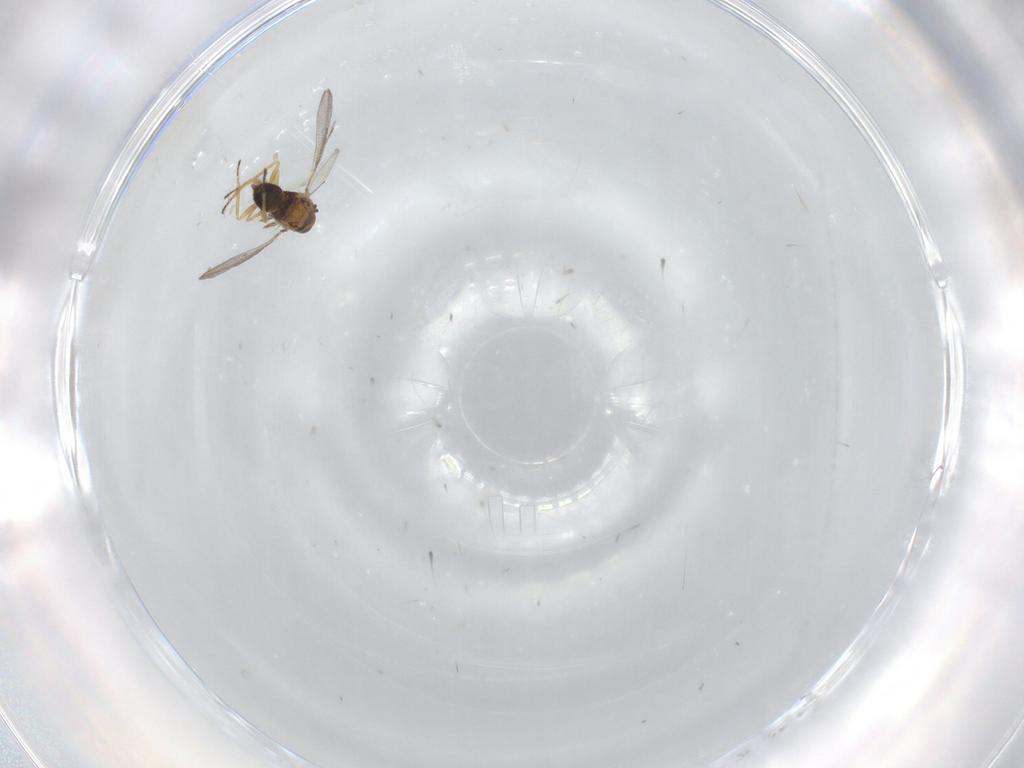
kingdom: Animalia
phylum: Arthropoda
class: Insecta
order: Hymenoptera
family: Eulophidae
